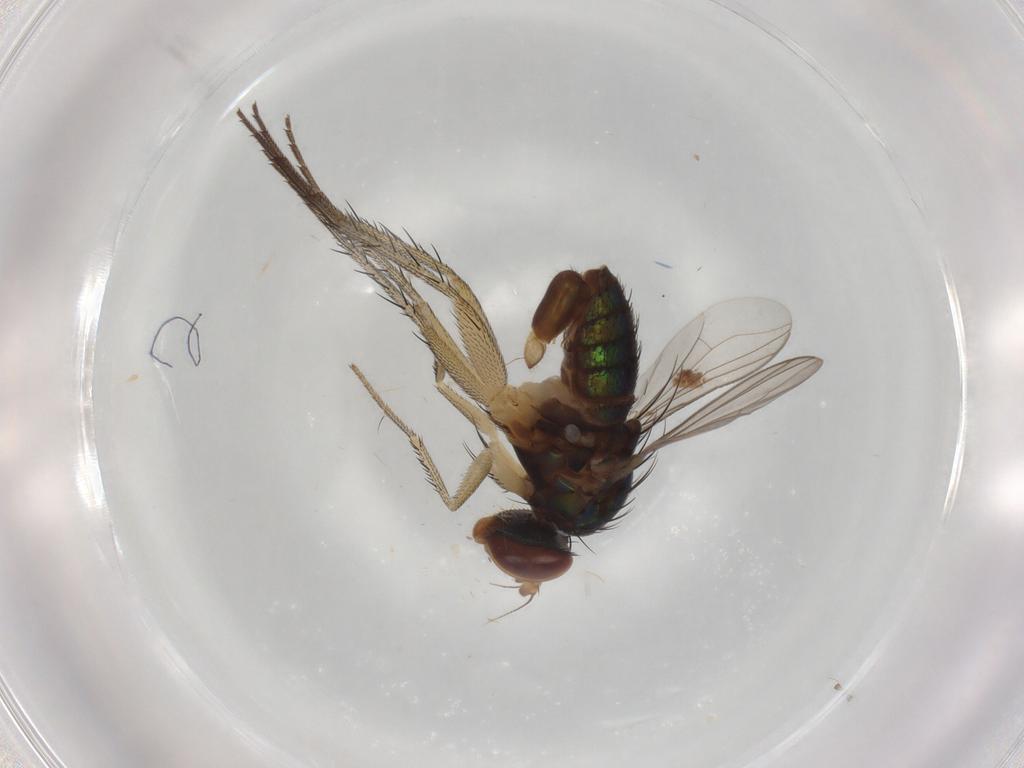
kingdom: Animalia
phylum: Arthropoda
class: Insecta
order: Diptera
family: Dolichopodidae
